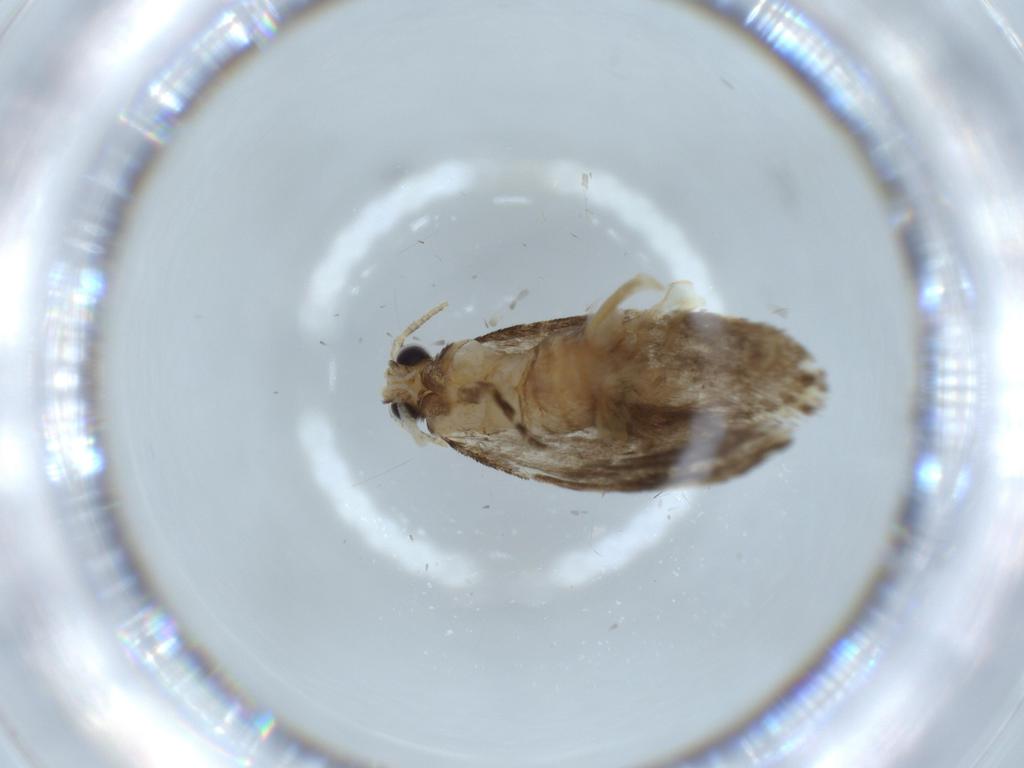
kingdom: Animalia
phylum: Arthropoda
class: Insecta
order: Lepidoptera
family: Tineidae
